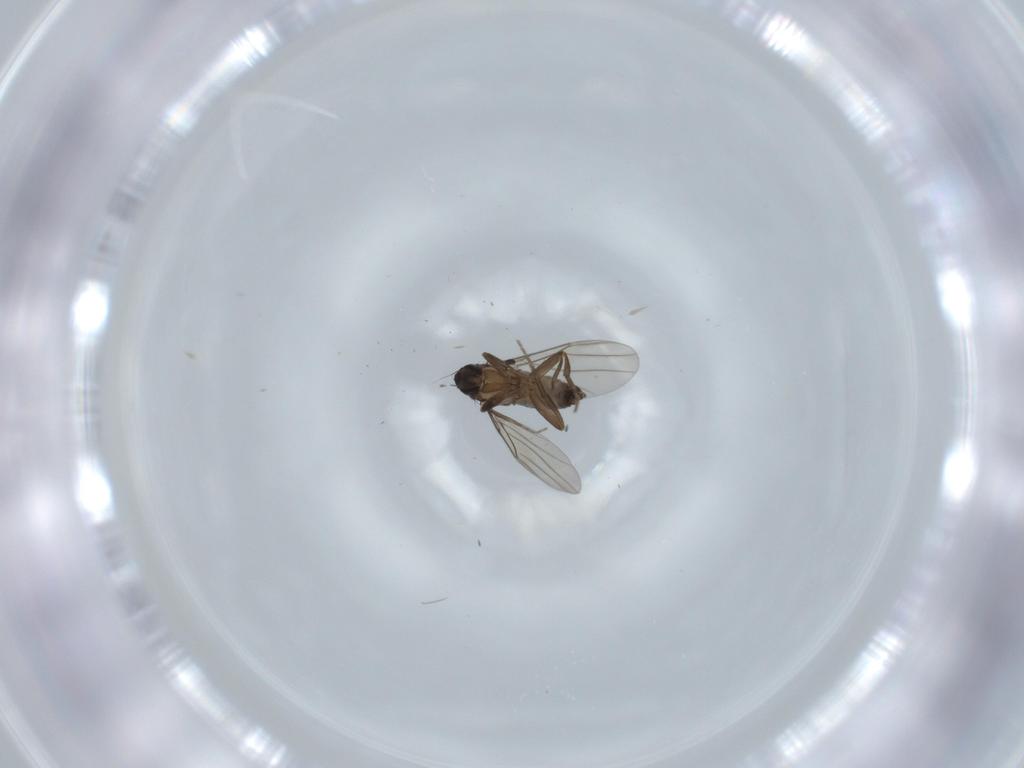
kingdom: Animalia
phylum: Arthropoda
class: Insecta
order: Diptera
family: Phoridae
